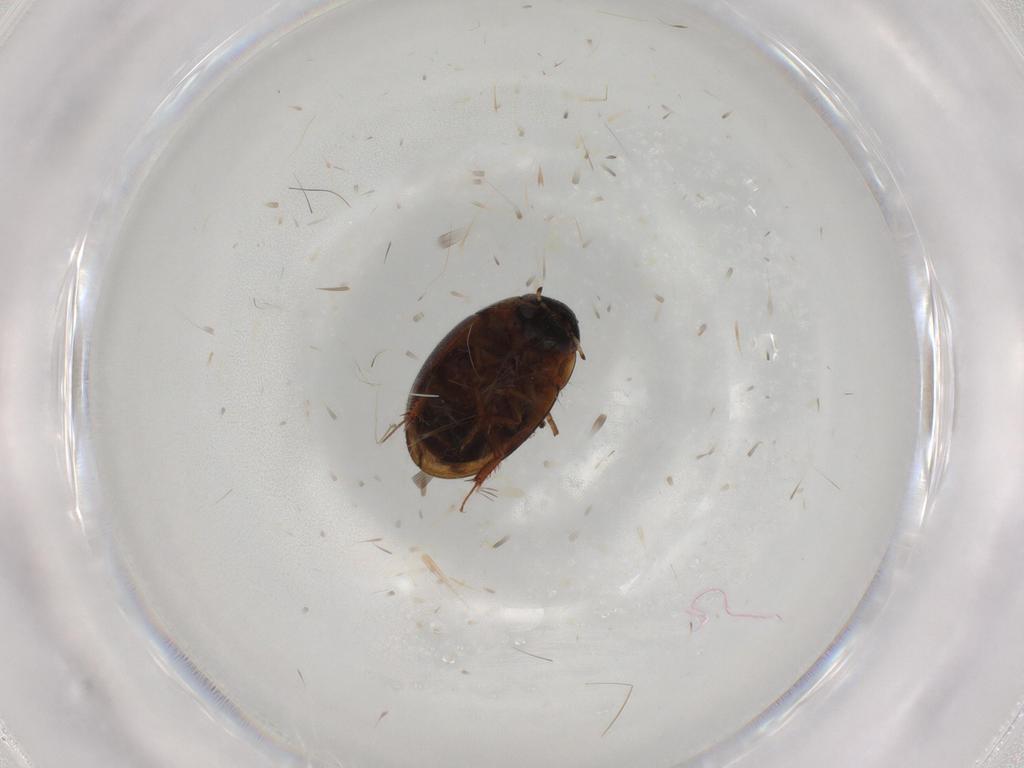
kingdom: Animalia
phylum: Arthropoda
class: Insecta
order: Coleoptera
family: Hydrophilidae
